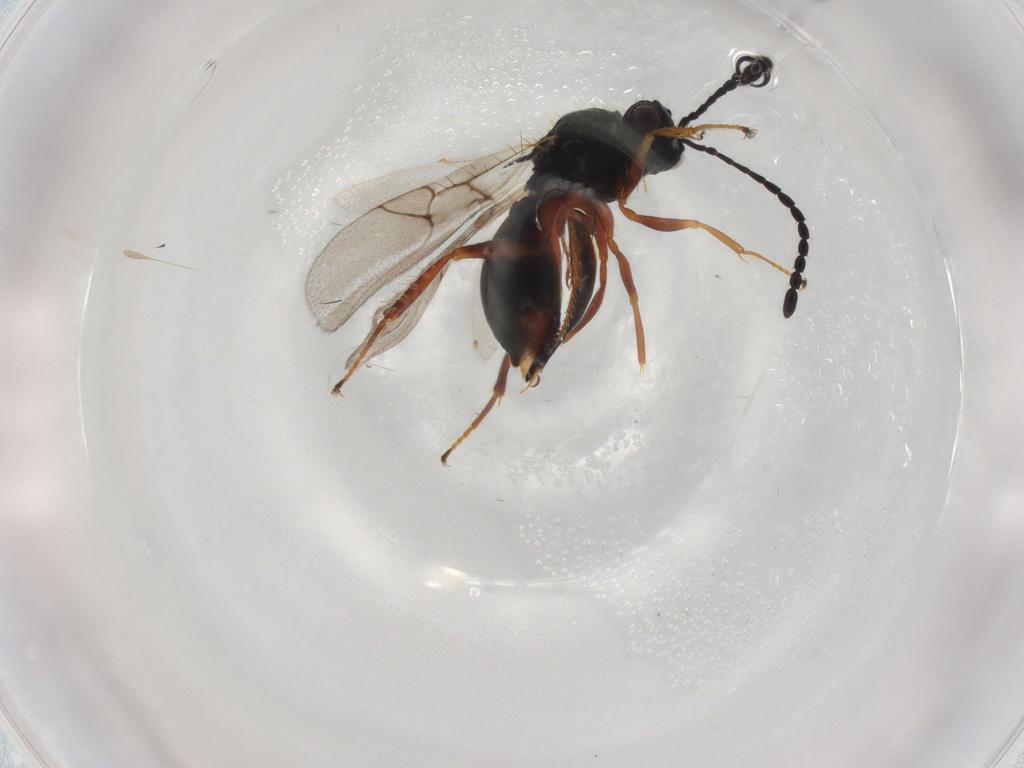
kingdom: Animalia
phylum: Arthropoda
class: Insecta
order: Hymenoptera
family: Figitidae
